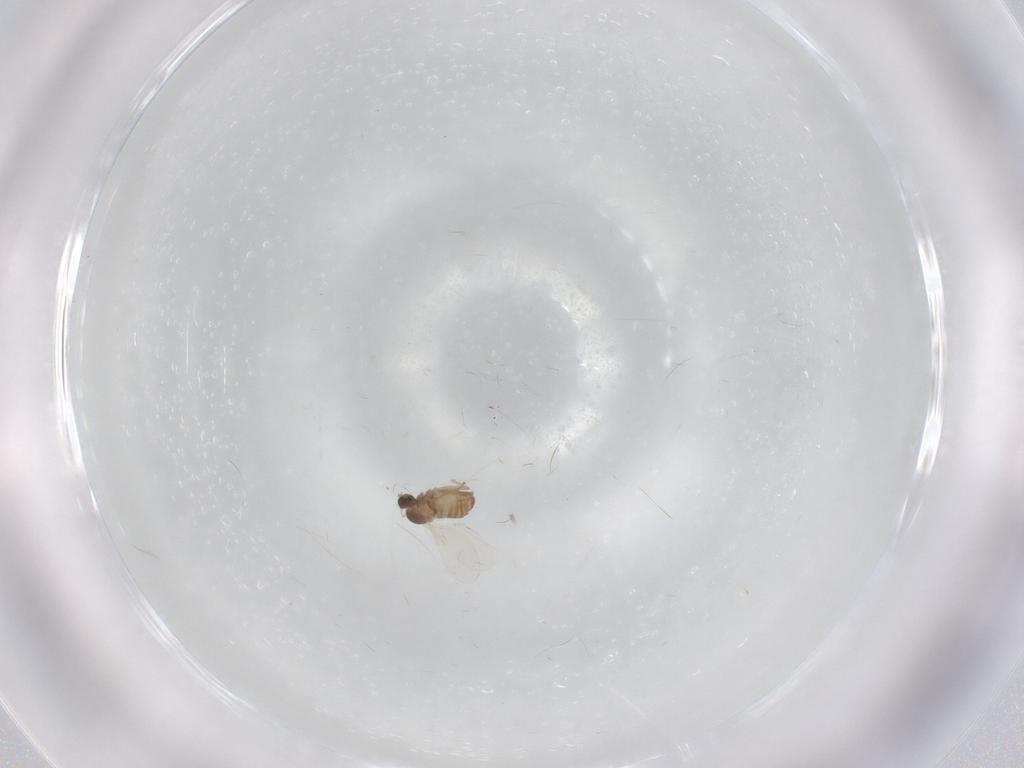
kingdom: Animalia
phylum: Arthropoda
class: Insecta
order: Diptera
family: Cecidomyiidae
